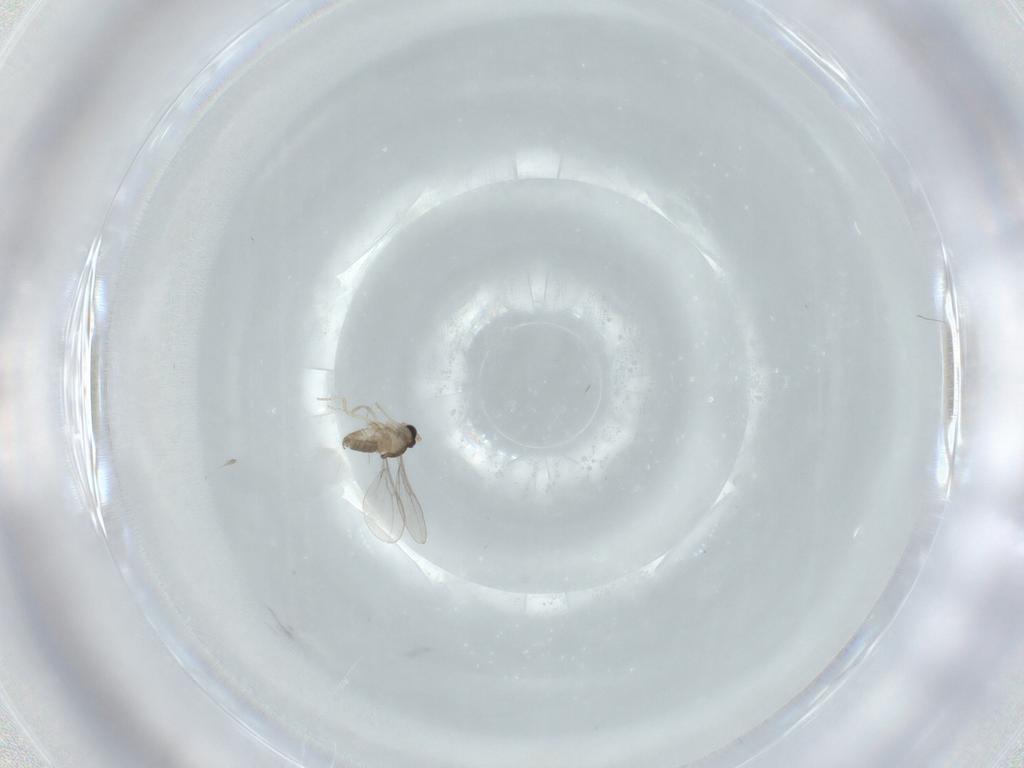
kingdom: Animalia
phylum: Arthropoda
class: Insecta
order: Diptera
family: Cecidomyiidae
